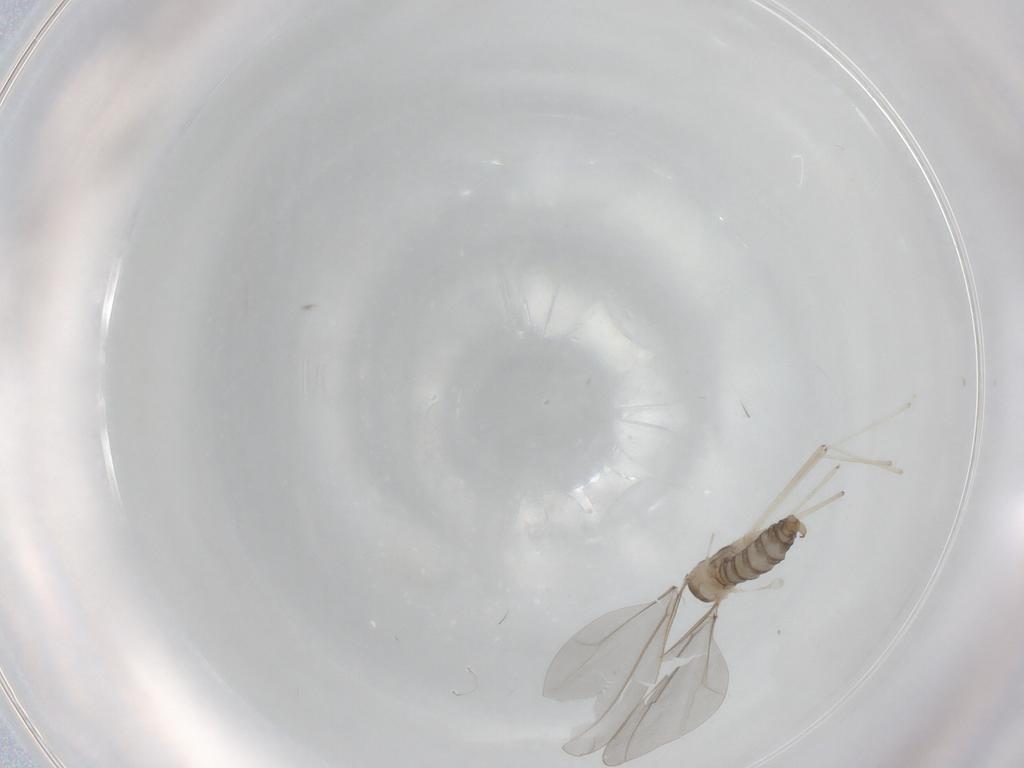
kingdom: Animalia
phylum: Arthropoda
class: Insecta
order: Diptera
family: Cecidomyiidae
